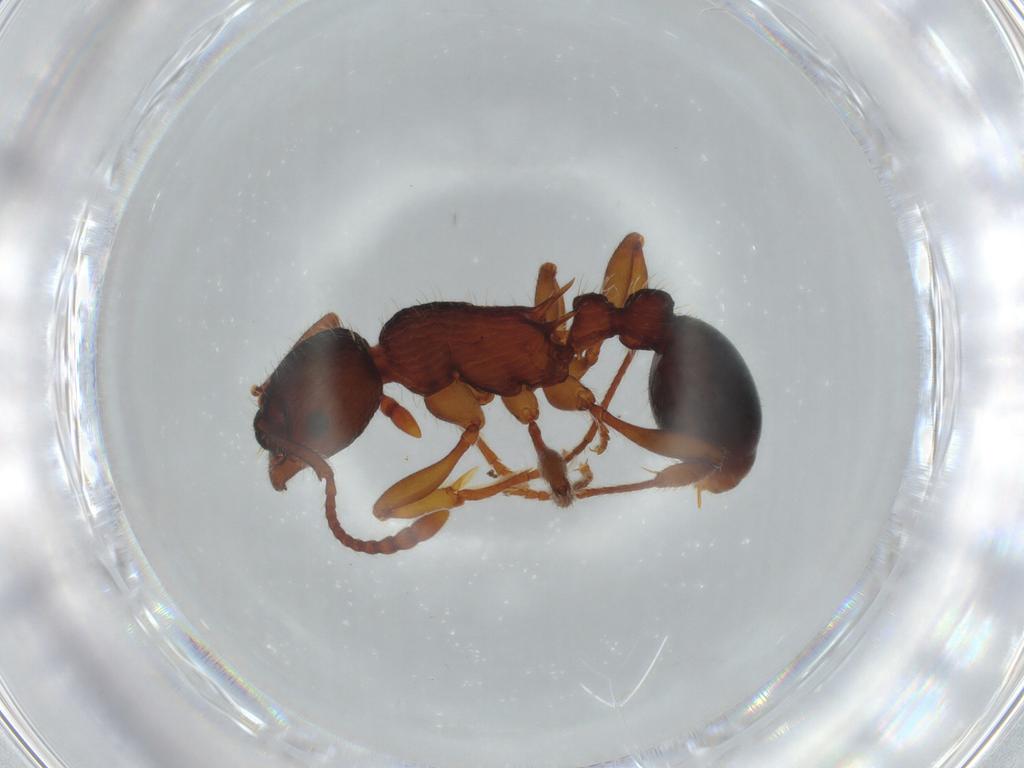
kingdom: Animalia
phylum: Arthropoda
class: Insecta
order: Hymenoptera
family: Formicidae
